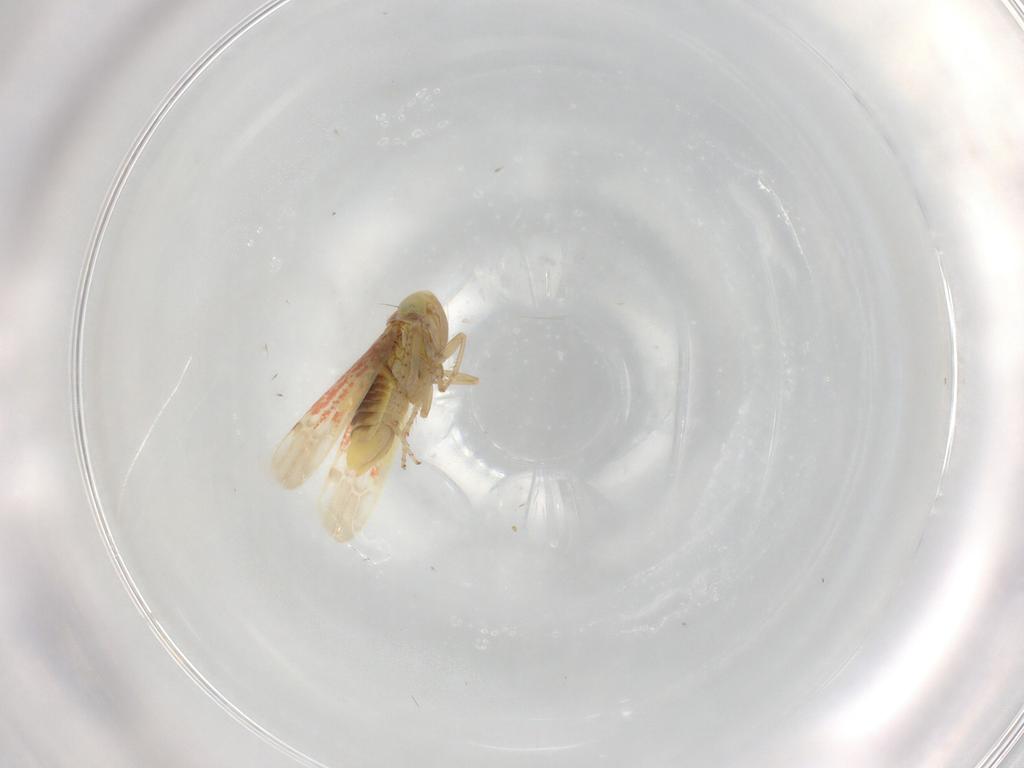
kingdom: Animalia
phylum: Arthropoda
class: Insecta
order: Hemiptera
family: Cicadellidae
